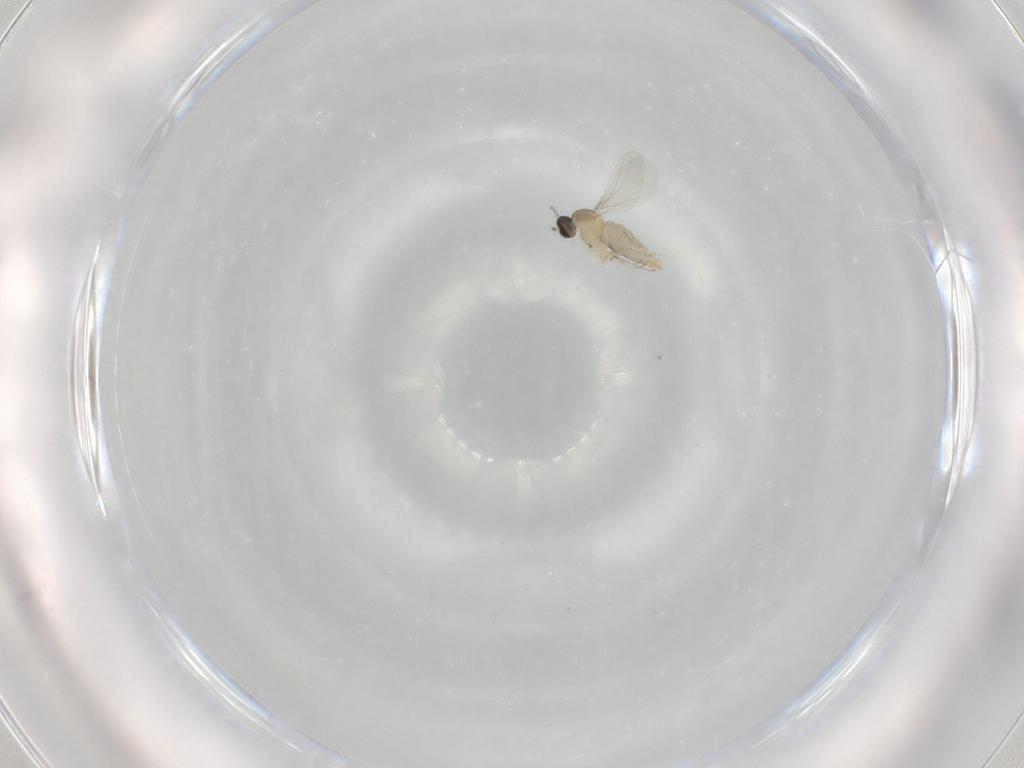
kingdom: Animalia
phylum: Arthropoda
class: Insecta
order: Diptera
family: Cecidomyiidae
